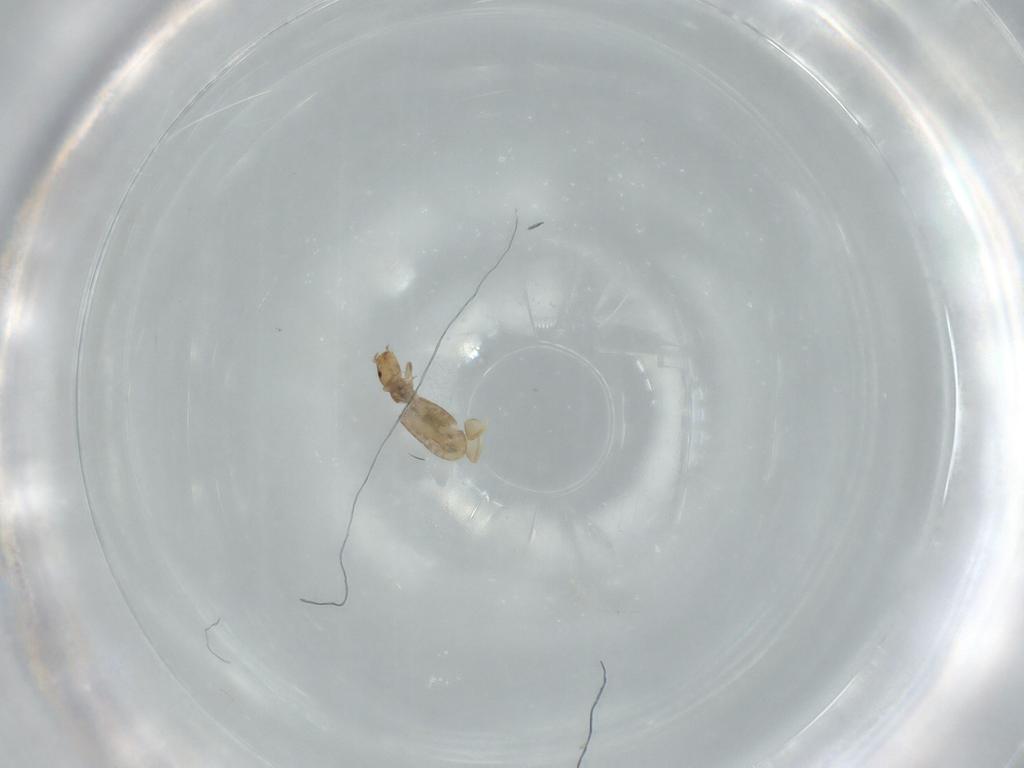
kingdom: Animalia
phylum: Arthropoda
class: Insecta
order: Psocodea
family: Liposcelididae
